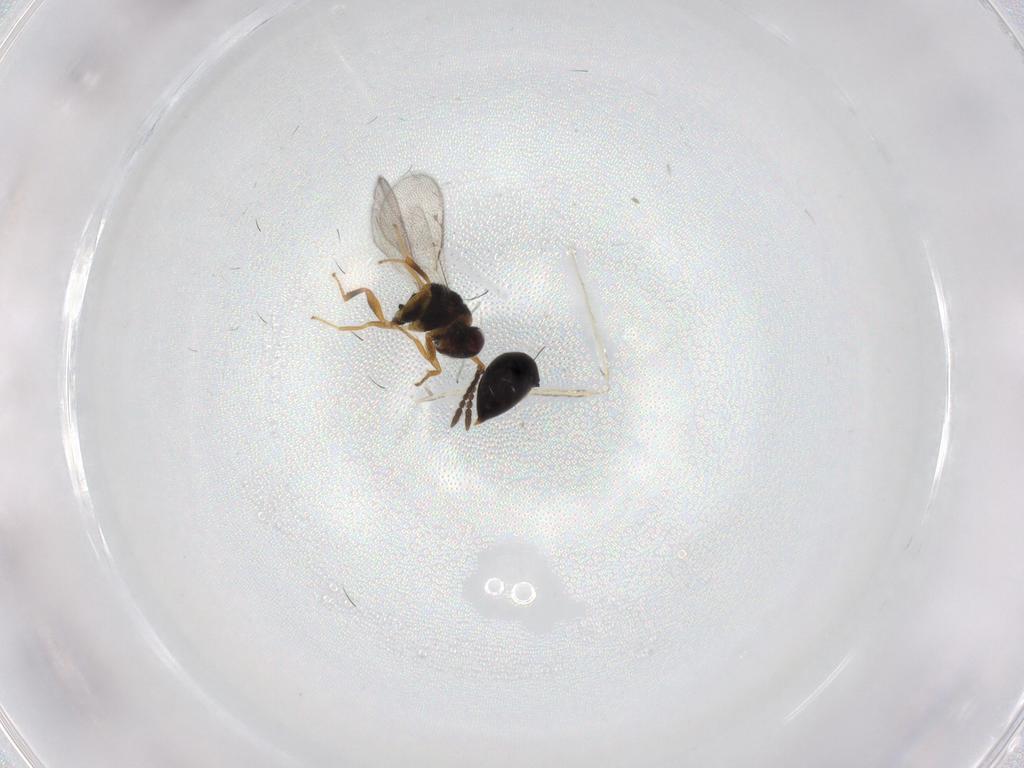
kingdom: Animalia
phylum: Arthropoda
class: Insecta
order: Hymenoptera
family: Eurytomidae
